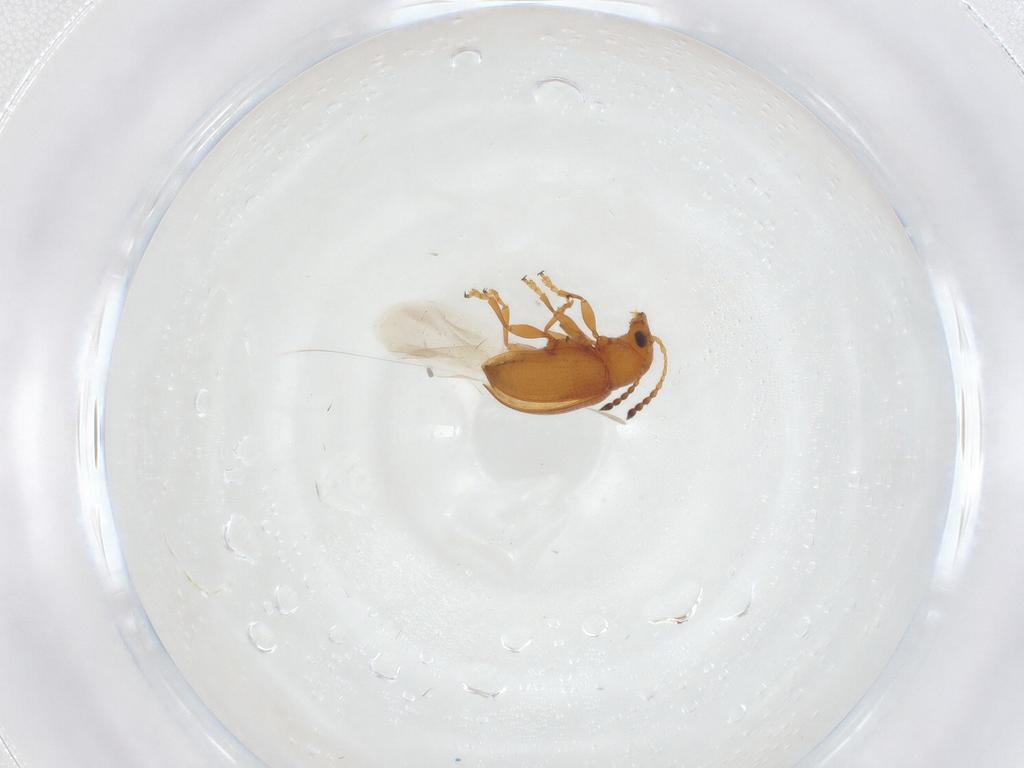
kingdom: Animalia
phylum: Arthropoda
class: Insecta
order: Coleoptera
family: Chrysomelidae
